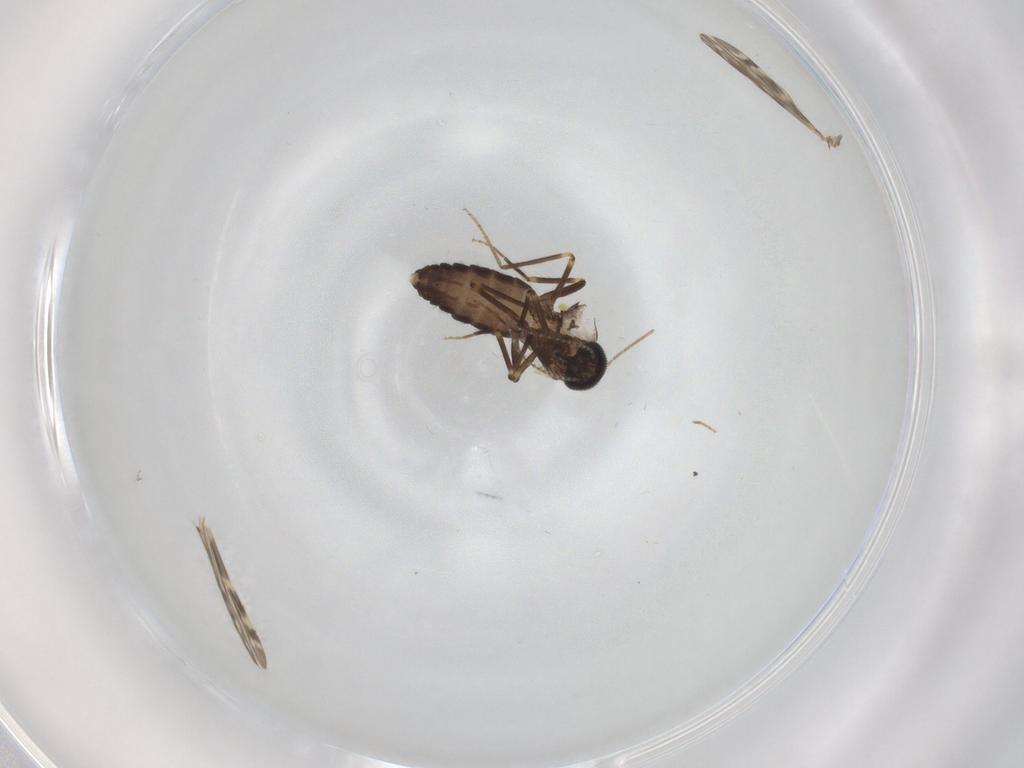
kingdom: Animalia
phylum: Arthropoda
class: Insecta
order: Diptera
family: Ceratopogonidae
